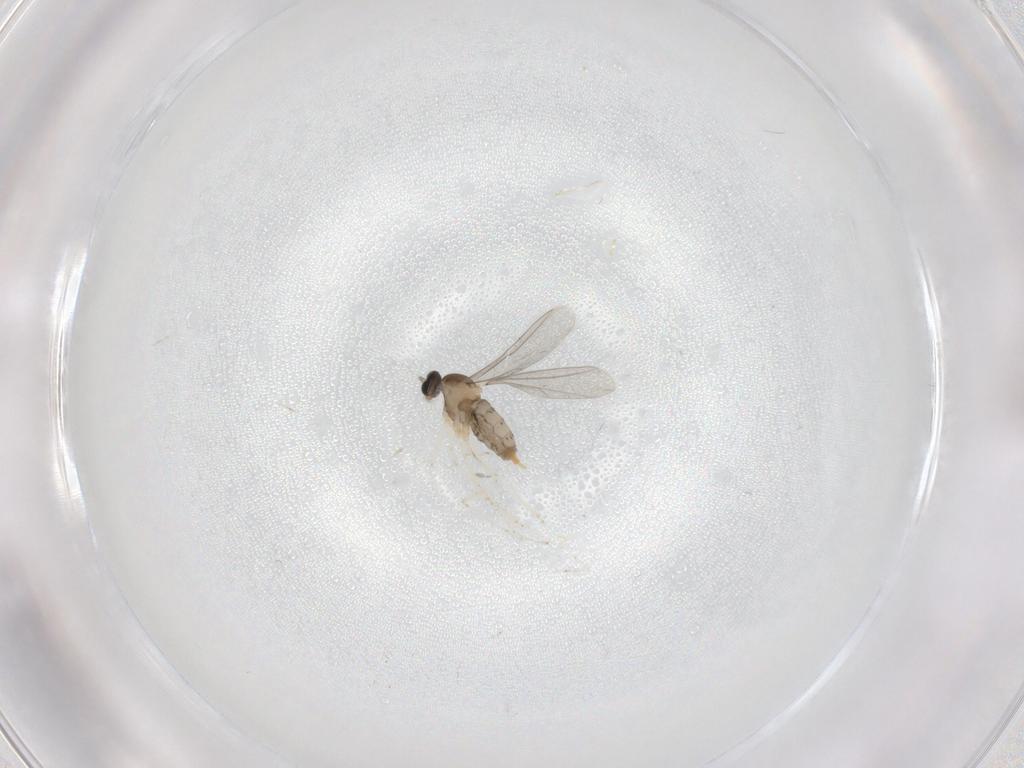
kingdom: Animalia
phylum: Arthropoda
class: Insecta
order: Diptera
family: Cecidomyiidae
